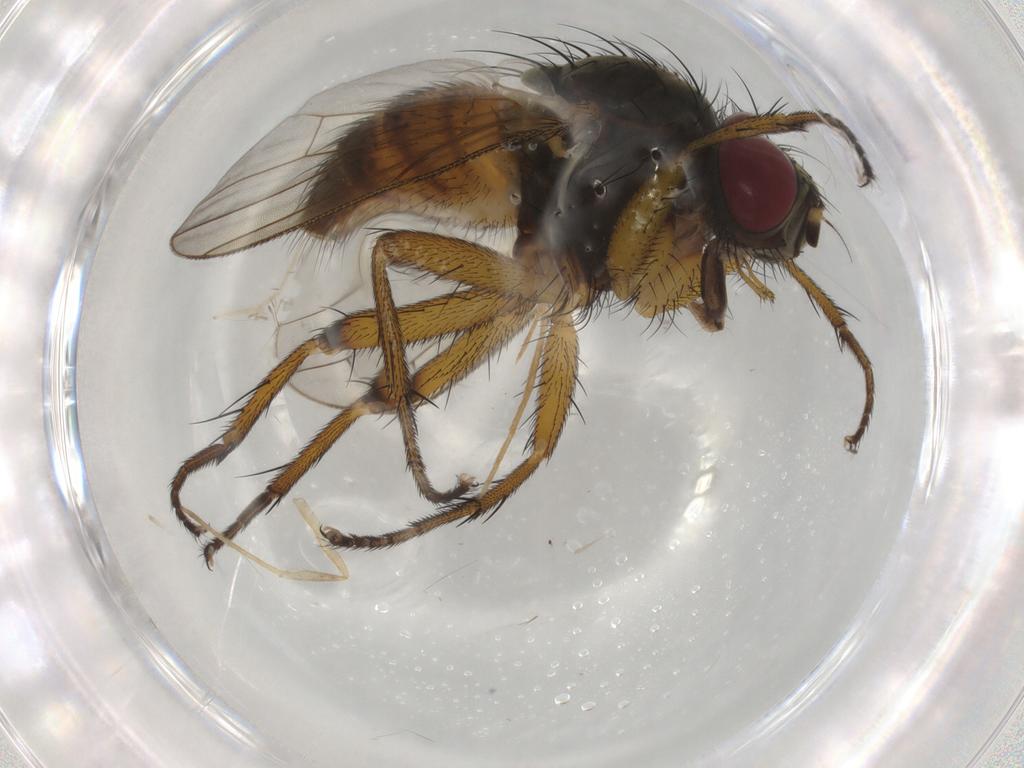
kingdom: Animalia
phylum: Arthropoda
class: Insecta
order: Diptera
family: Muscidae
